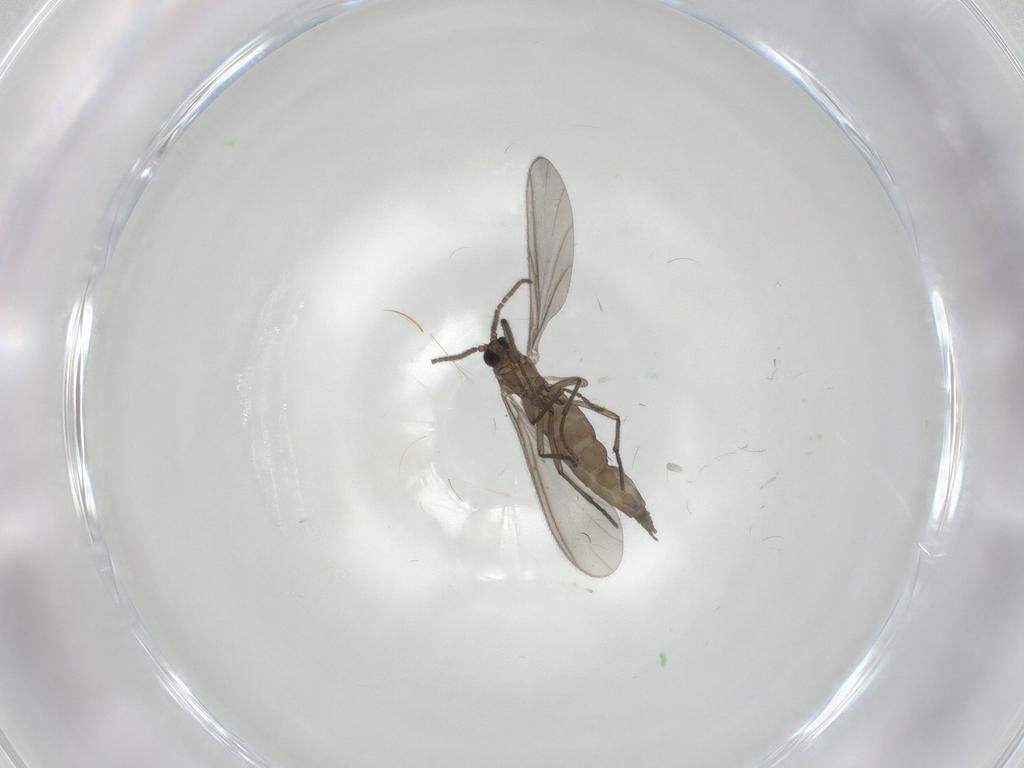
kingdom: Animalia
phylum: Arthropoda
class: Insecta
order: Diptera
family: Sciaridae
